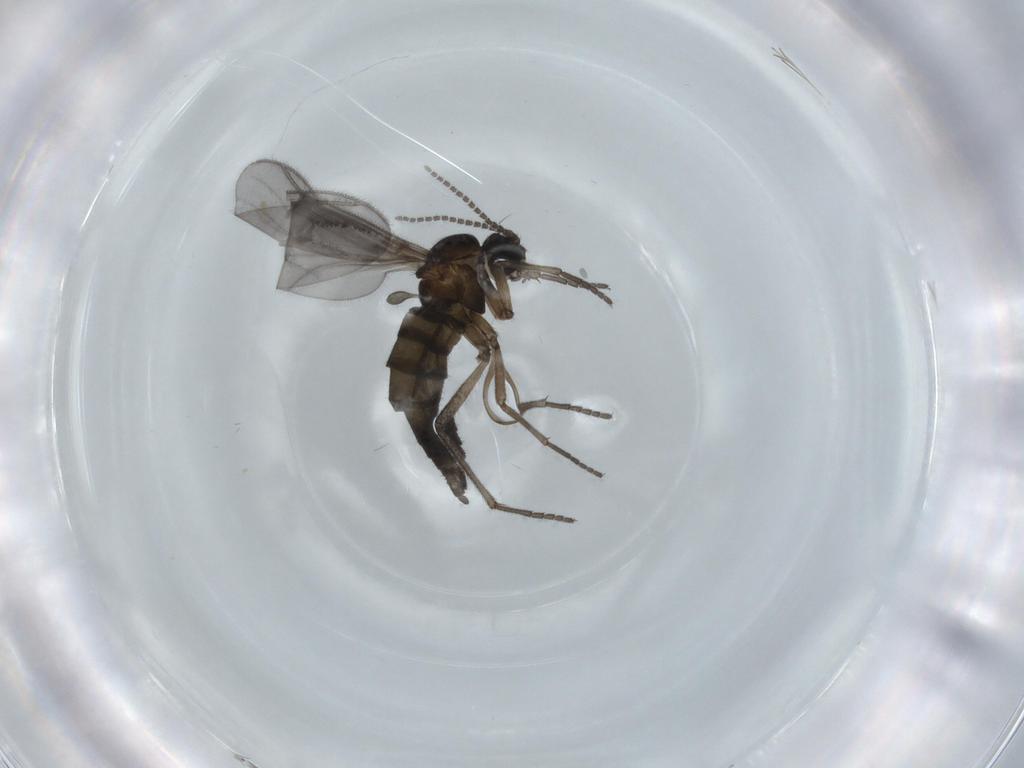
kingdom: Animalia
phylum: Arthropoda
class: Insecta
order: Diptera
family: Sciaridae
